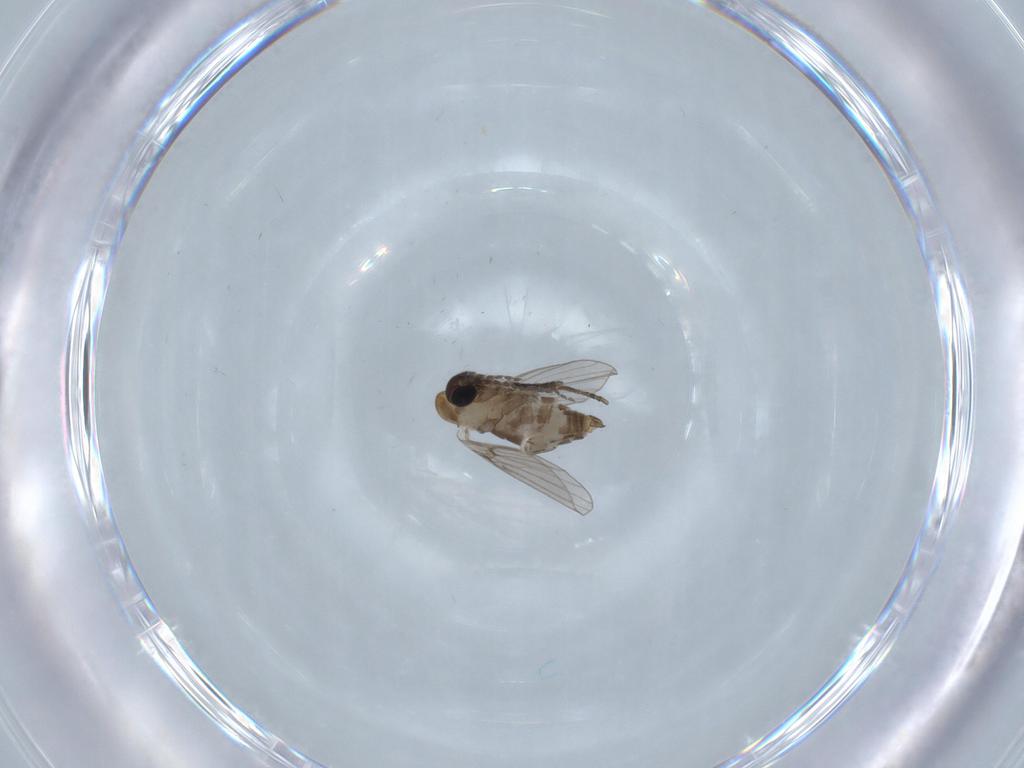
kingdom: Animalia
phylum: Arthropoda
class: Insecta
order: Diptera
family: Psychodidae
